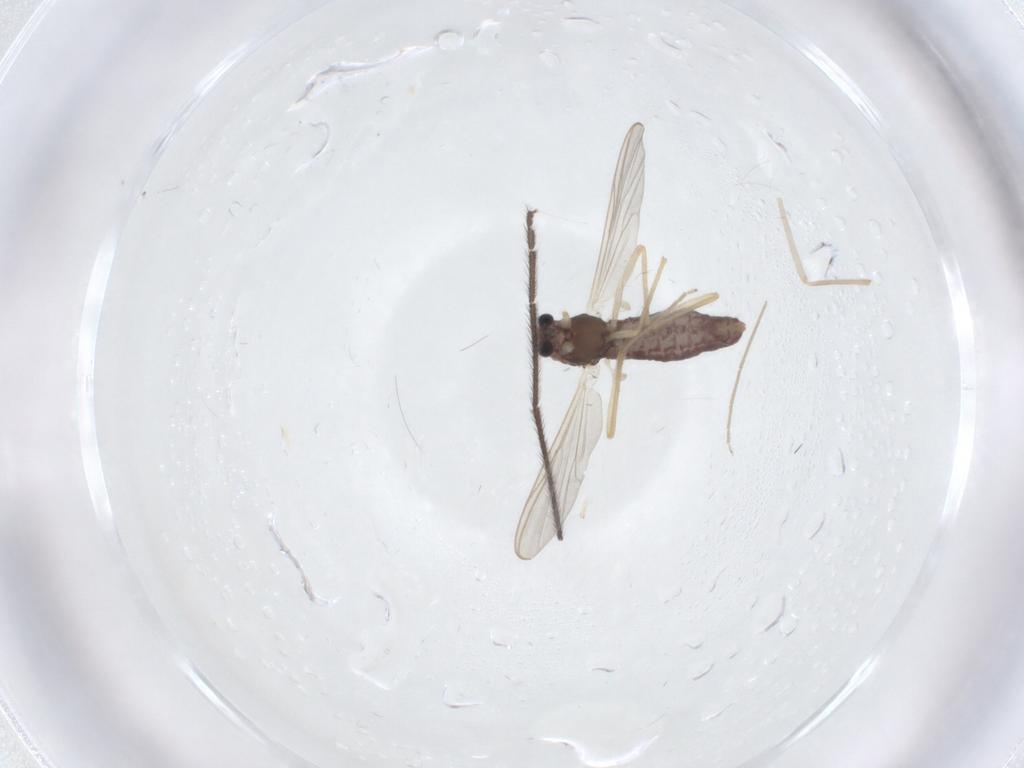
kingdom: Animalia
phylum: Arthropoda
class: Insecta
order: Diptera
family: Chironomidae
